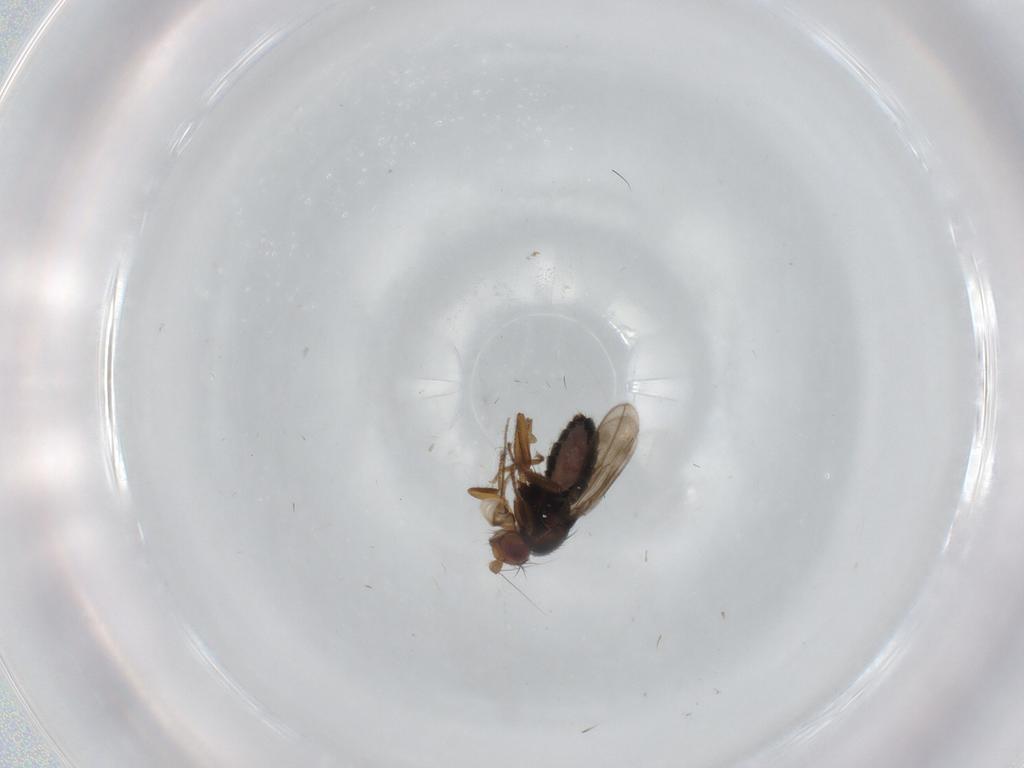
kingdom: Animalia
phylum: Arthropoda
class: Insecta
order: Diptera
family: Sphaeroceridae
